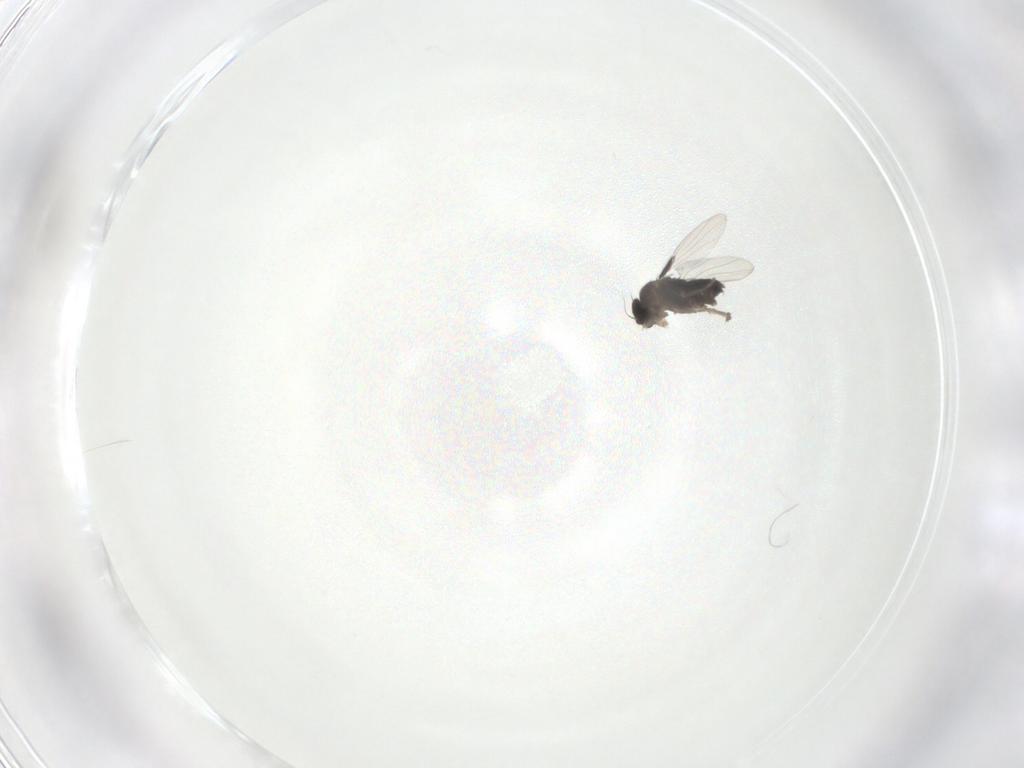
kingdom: Animalia
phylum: Arthropoda
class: Insecta
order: Diptera
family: Phoridae
